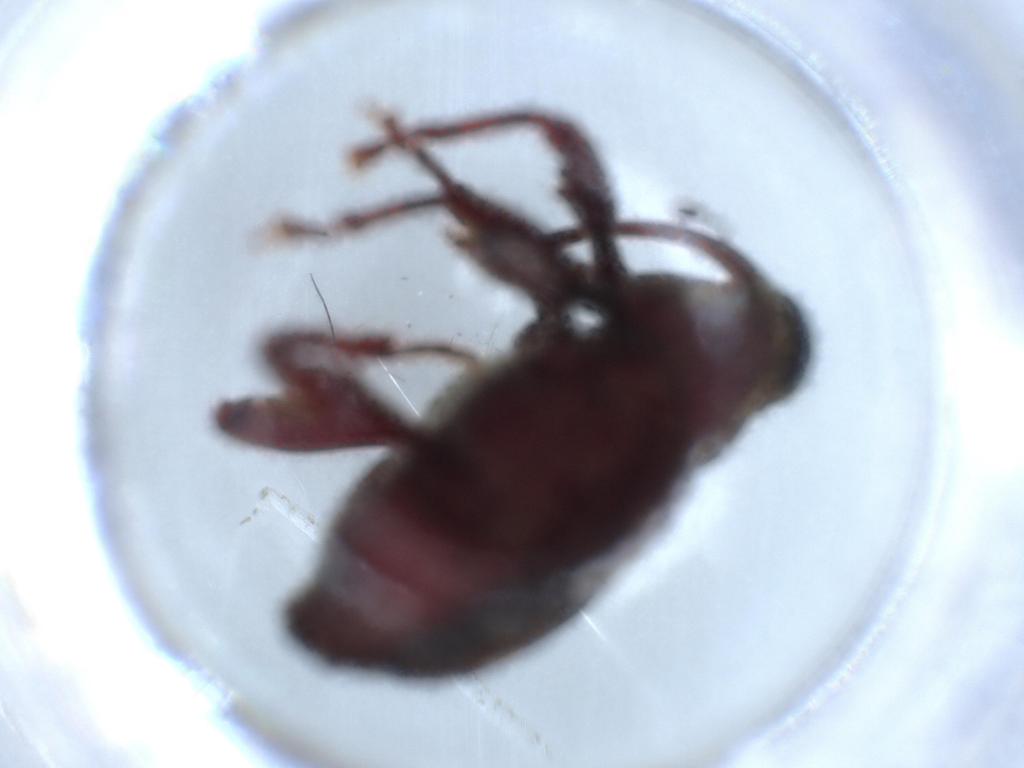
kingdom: Animalia
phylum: Arthropoda
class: Insecta
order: Coleoptera
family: Curculionidae
